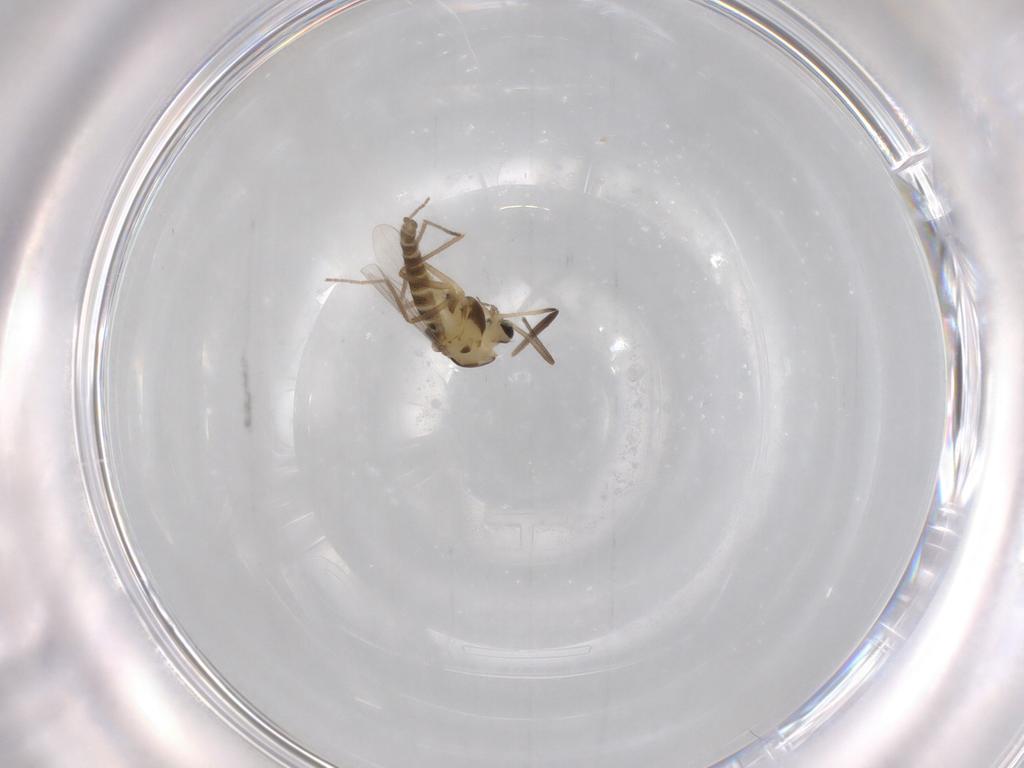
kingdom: Animalia
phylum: Arthropoda
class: Insecta
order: Diptera
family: Chironomidae
